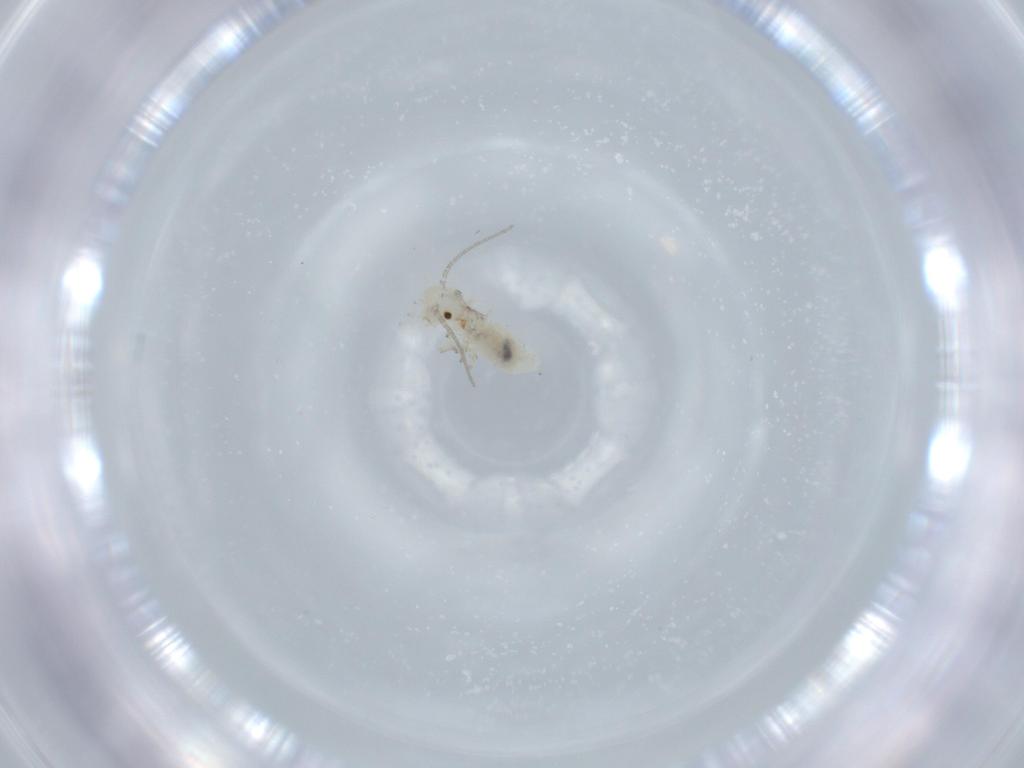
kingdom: Animalia
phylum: Arthropoda
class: Insecta
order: Psocodea
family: Caeciliusidae
